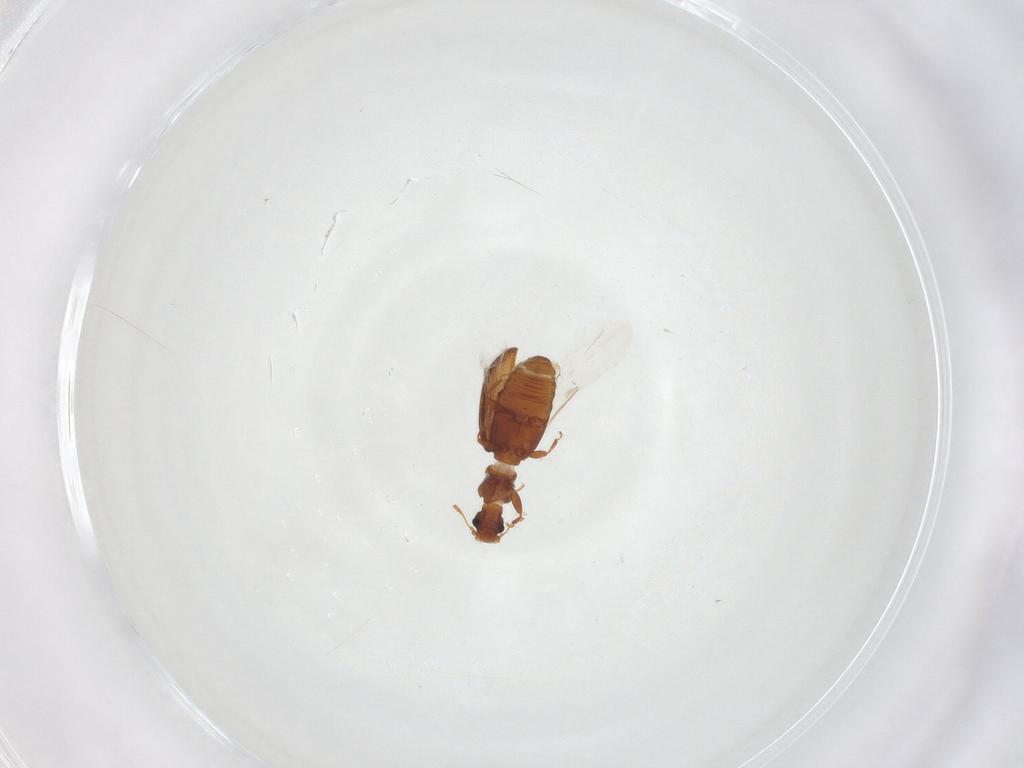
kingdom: Animalia
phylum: Arthropoda
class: Insecta
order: Coleoptera
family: Latridiidae
